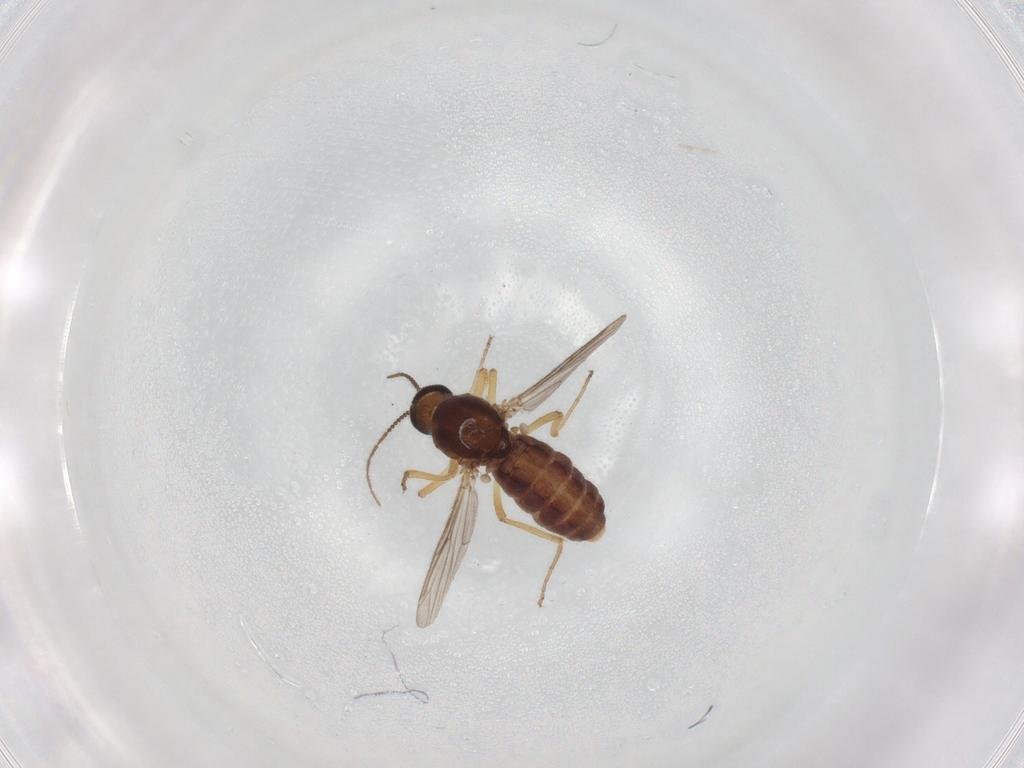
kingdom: Animalia
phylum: Arthropoda
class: Insecta
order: Diptera
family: Ceratopogonidae
